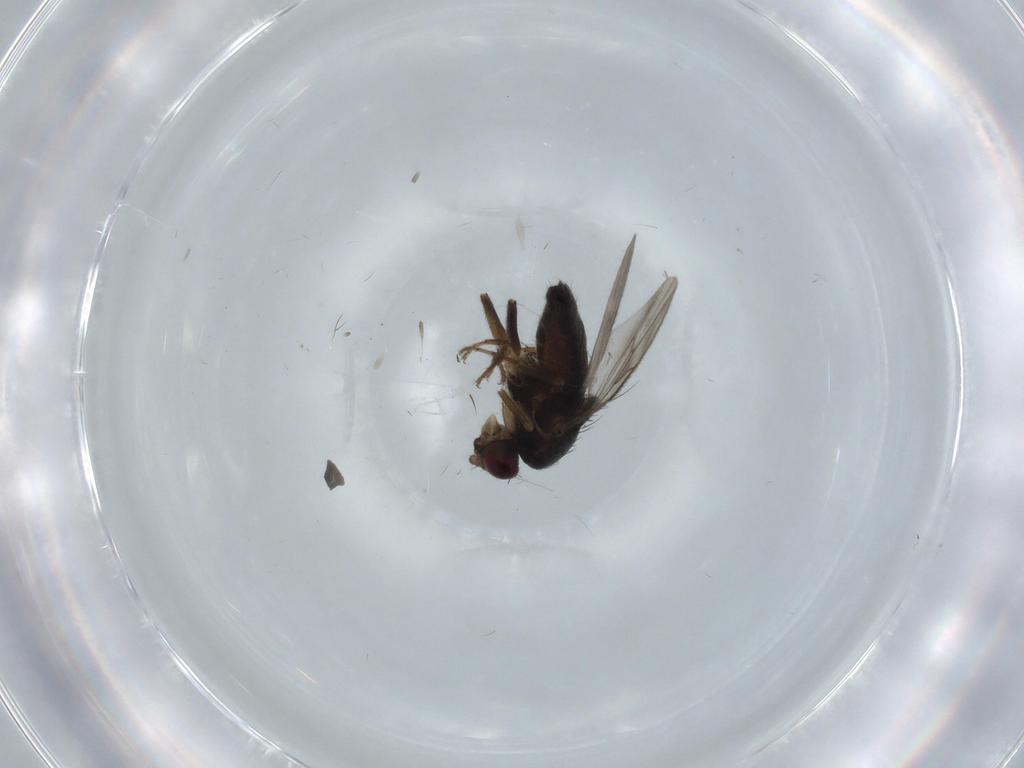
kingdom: Animalia
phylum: Arthropoda
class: Insecta
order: Diptera
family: Sphaeroceridae
